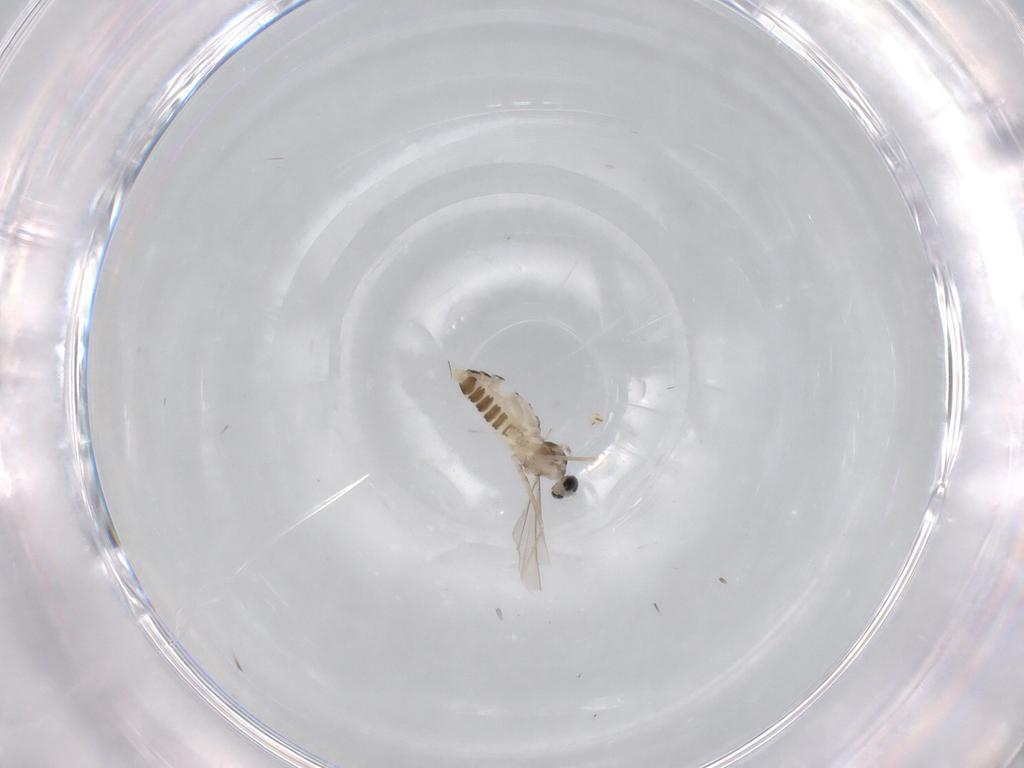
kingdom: Animalia
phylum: Arthropoda
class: Insecta
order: Diptera
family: Cecidomyiidae
